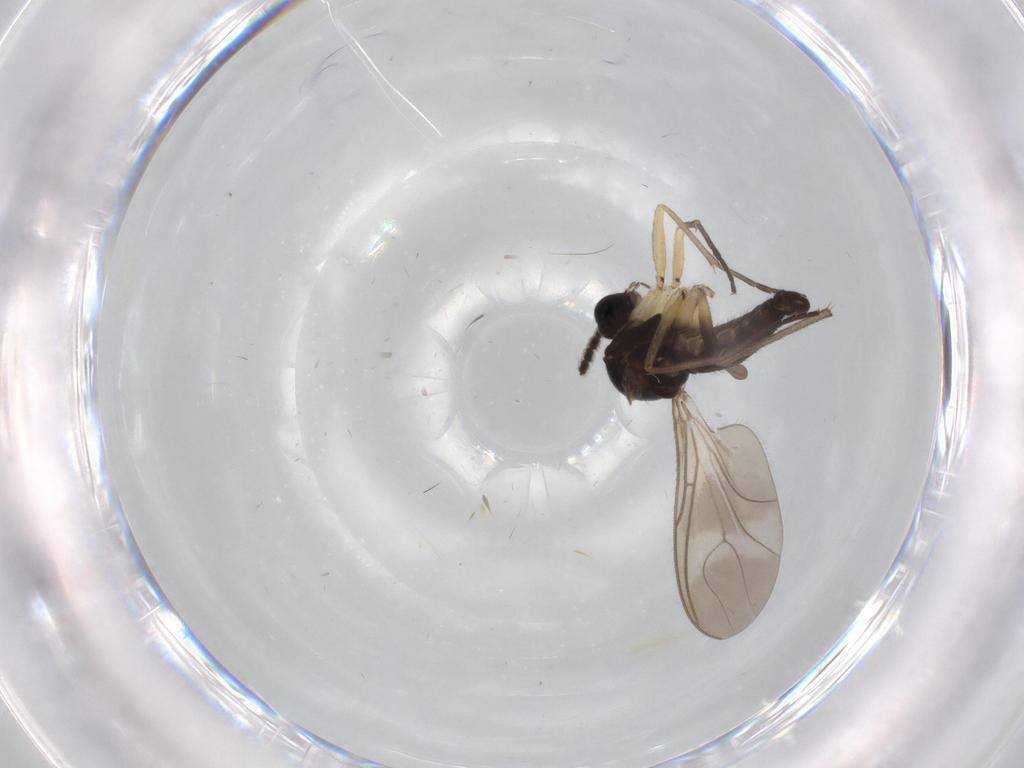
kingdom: Animalia
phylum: Arthropoda
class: Insecta
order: Diptera
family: Sciaridae
